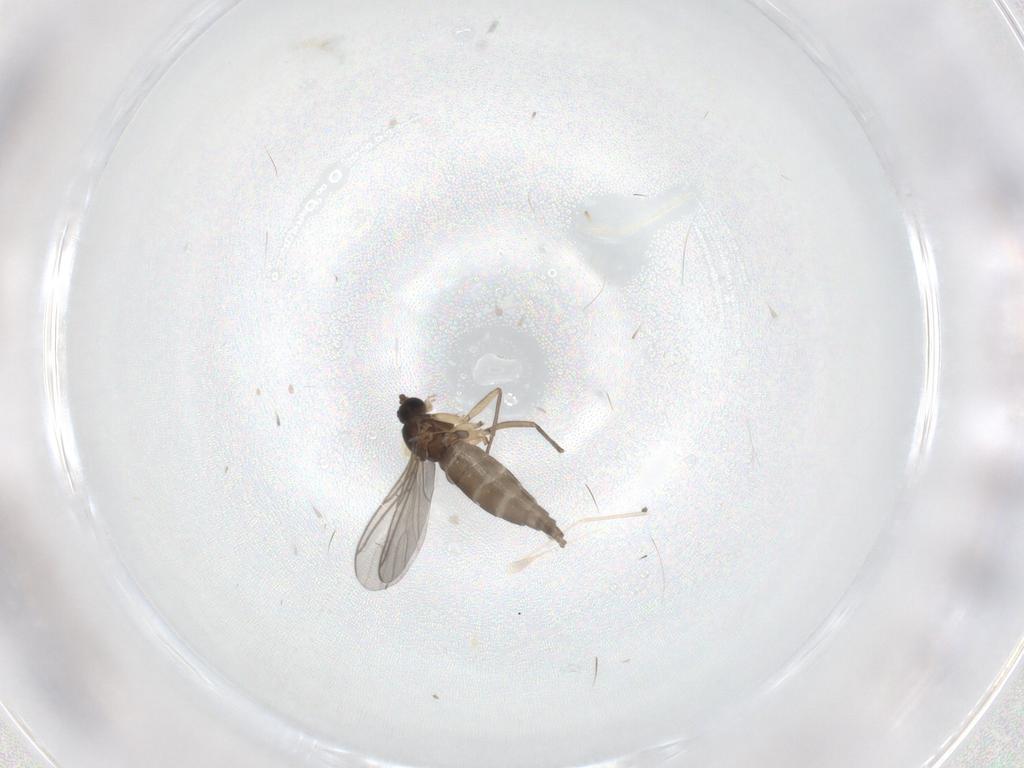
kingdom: Animalia
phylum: Arthropoda
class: Insecta
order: Diptera
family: Sciaridae
